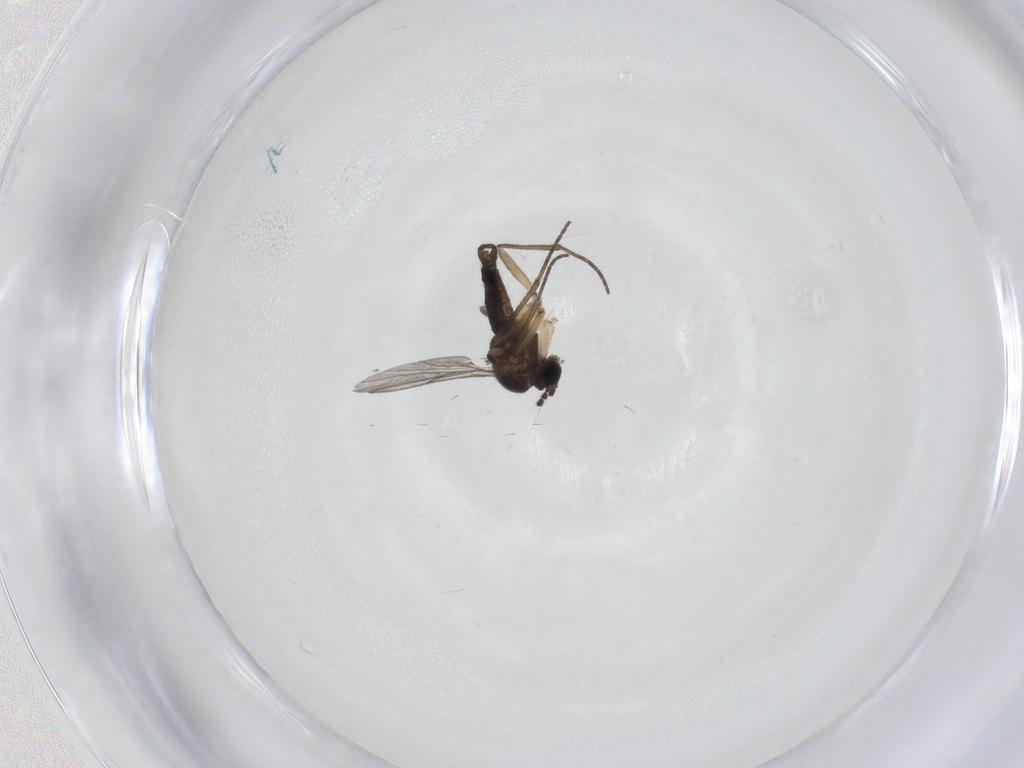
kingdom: Animalia
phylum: Arthropoda
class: Insecta
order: Diptera
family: Sciaridae
